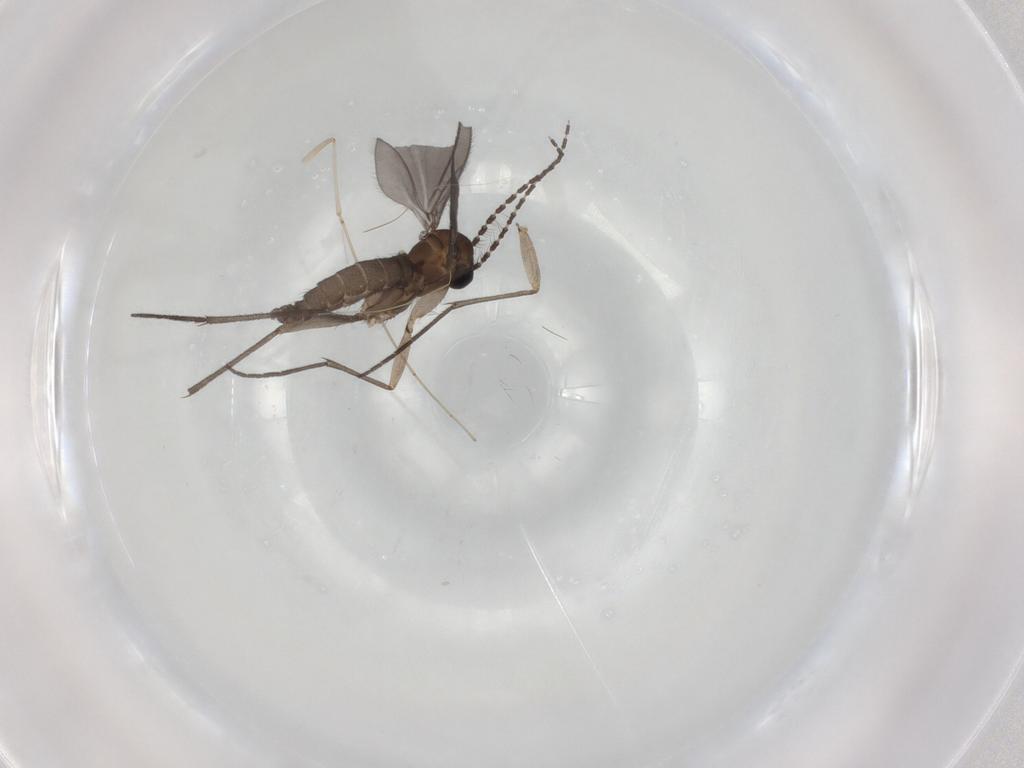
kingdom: Animalia
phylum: Arthropoda
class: Insecta
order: Diptera
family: Sciaridae
